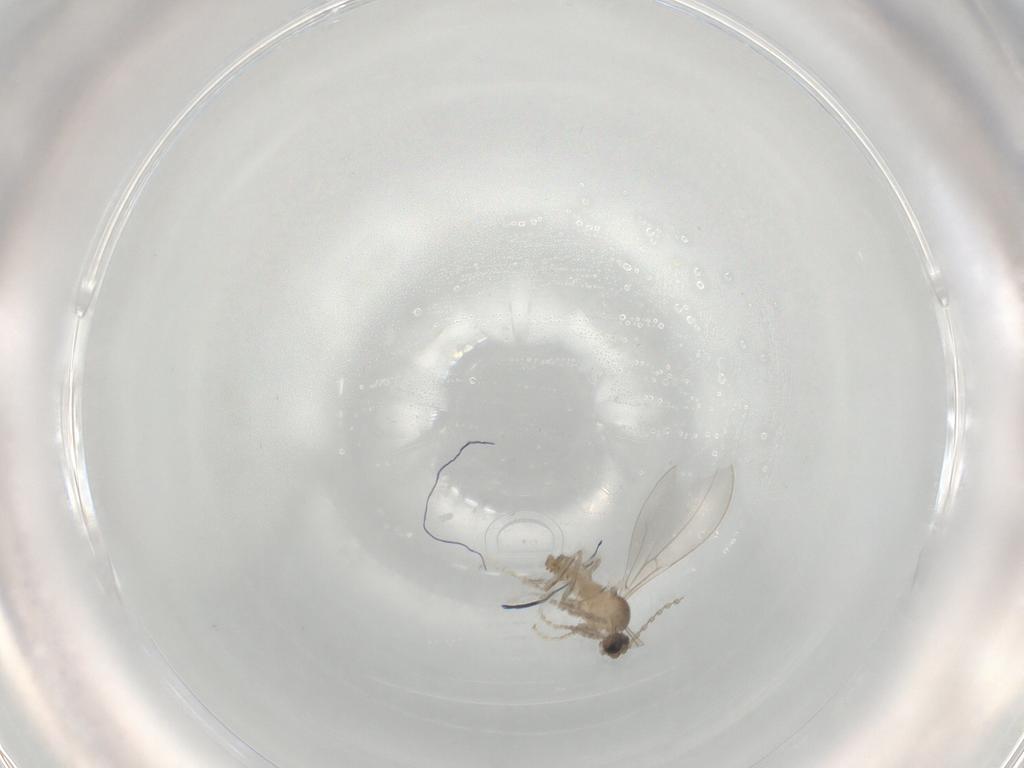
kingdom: Animalia
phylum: Arthropoda
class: Insecta
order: Diptera
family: Cecidomyiidae
